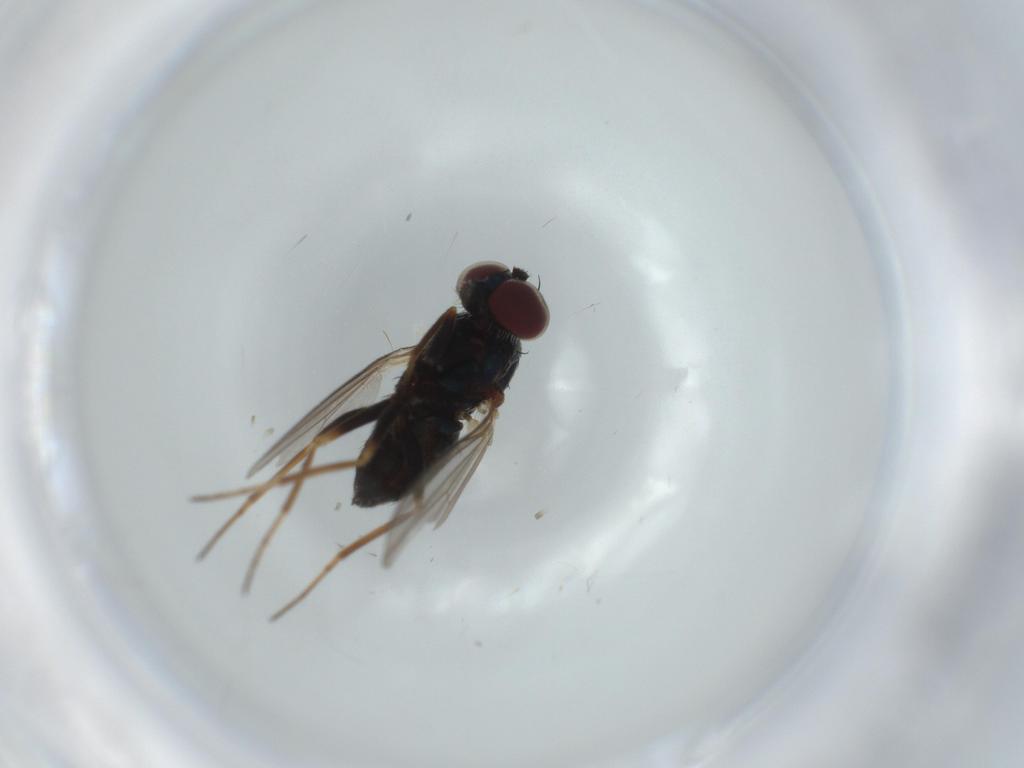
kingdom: Animalia
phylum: Arthropoda
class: Insecta
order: Diptera
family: Dolichopodidae
